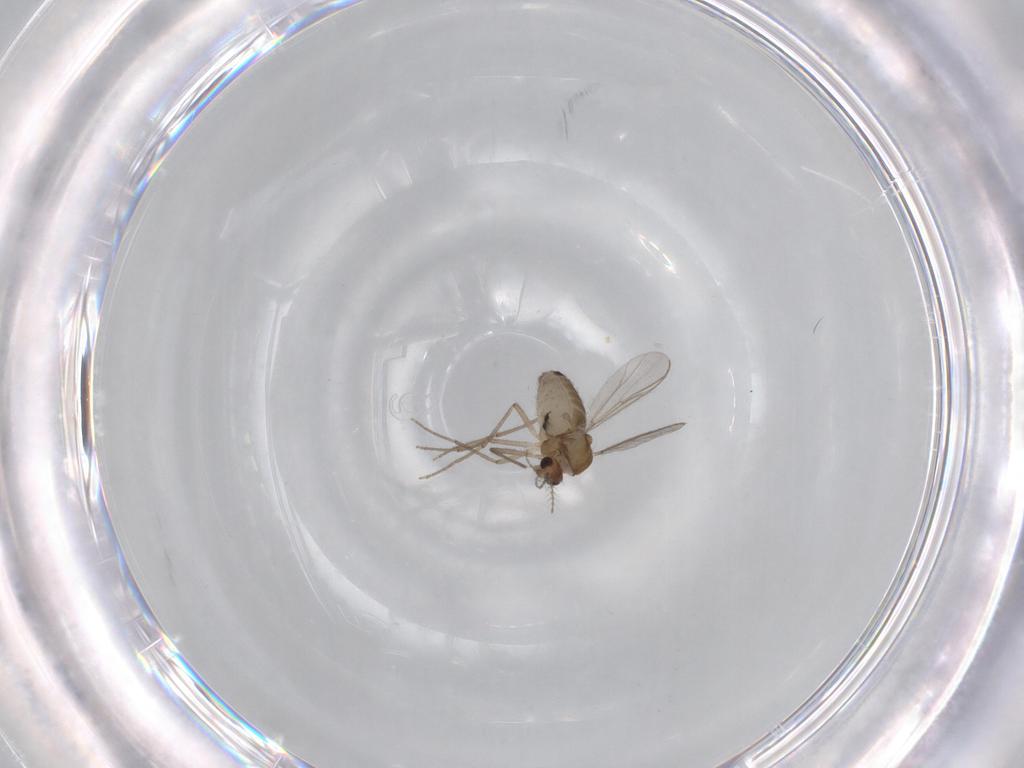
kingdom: Animalia
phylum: Arthropoda
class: Insecta
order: Diptera
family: Chironomidae
